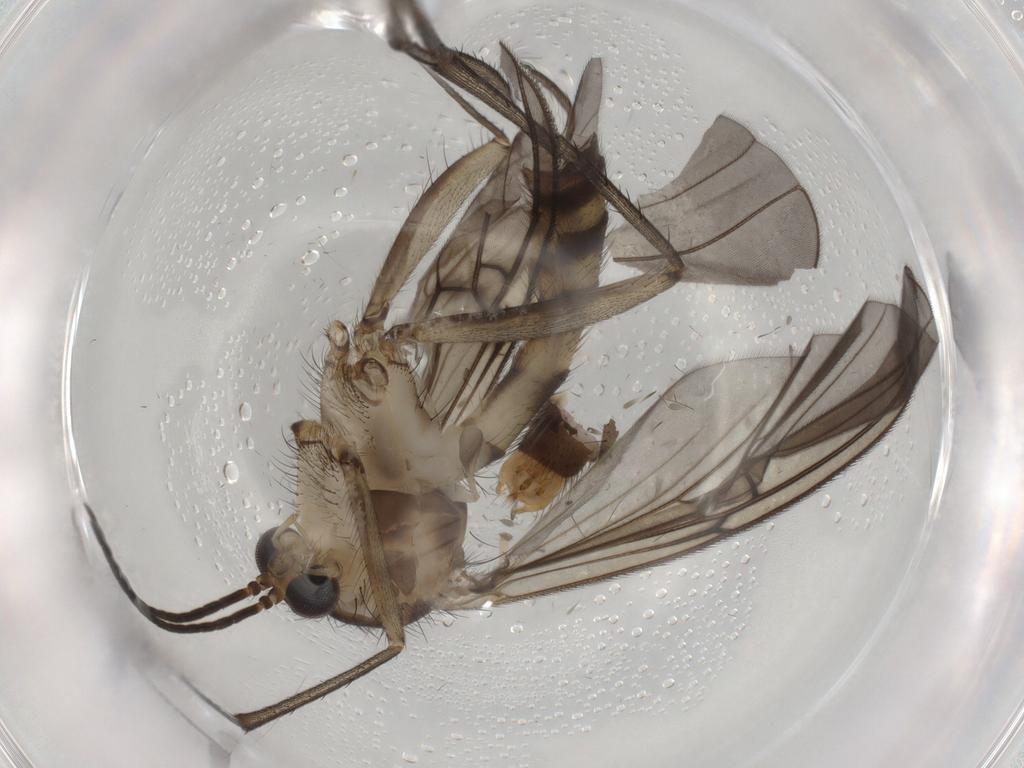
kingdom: Animalia
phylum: Arthropoda
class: Insecta
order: Diptera
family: Mycetophilidae
